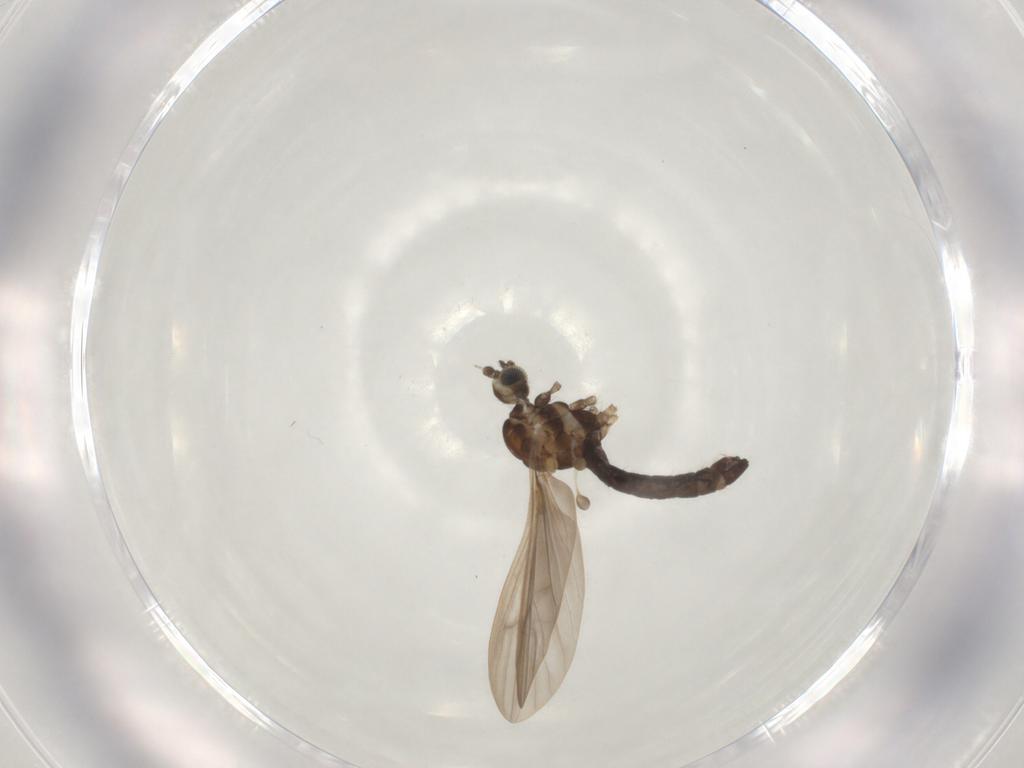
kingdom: Animalia
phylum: Arthropoda
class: Insecta
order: Diptera
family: Limoniidae
